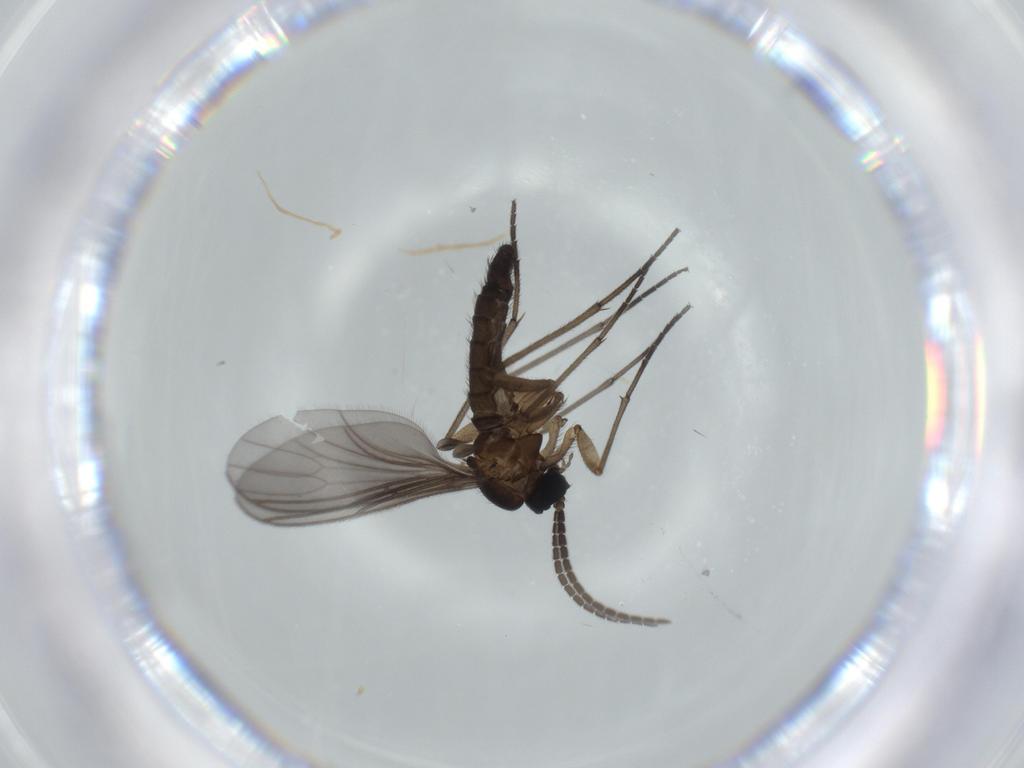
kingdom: Animalia
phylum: Arthropoda
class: Insecta
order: Diptera
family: Sciaridae
